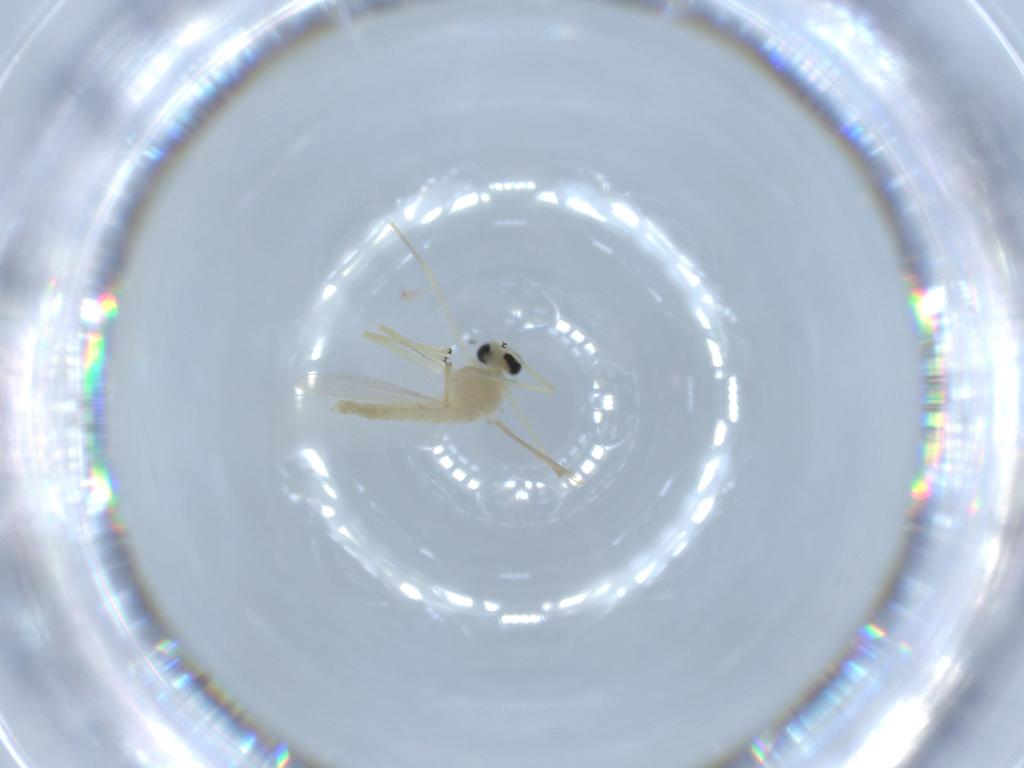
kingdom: Animalia
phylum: Arthropoda
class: Insecta
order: Diptera
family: Chironomidae
